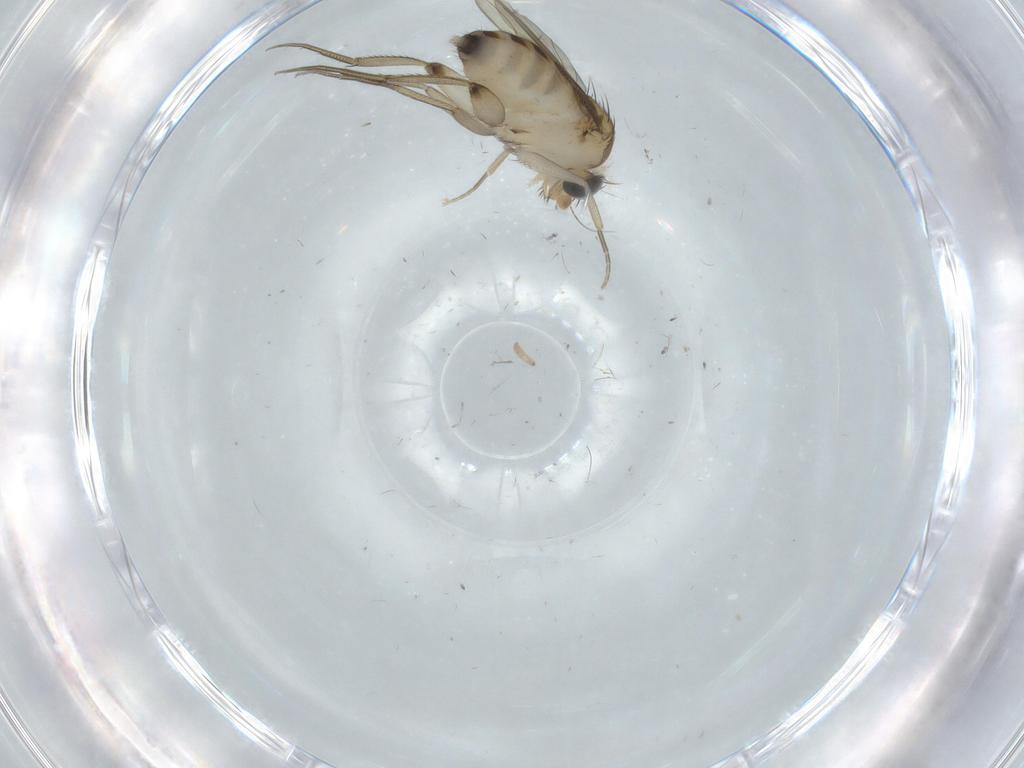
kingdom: Animalia
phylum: Arthropoda
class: Insecta
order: Diptera
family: Phoridae
